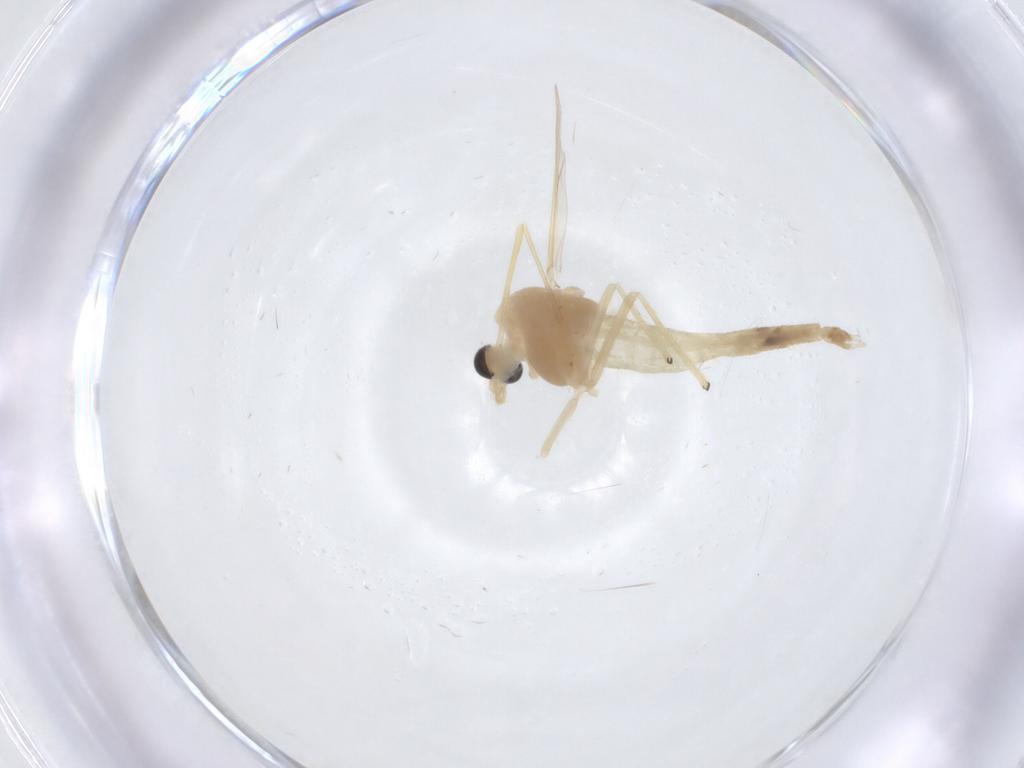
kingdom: Animalia
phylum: Arthropoda
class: Insecta
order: Diptera
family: Chironomidae
